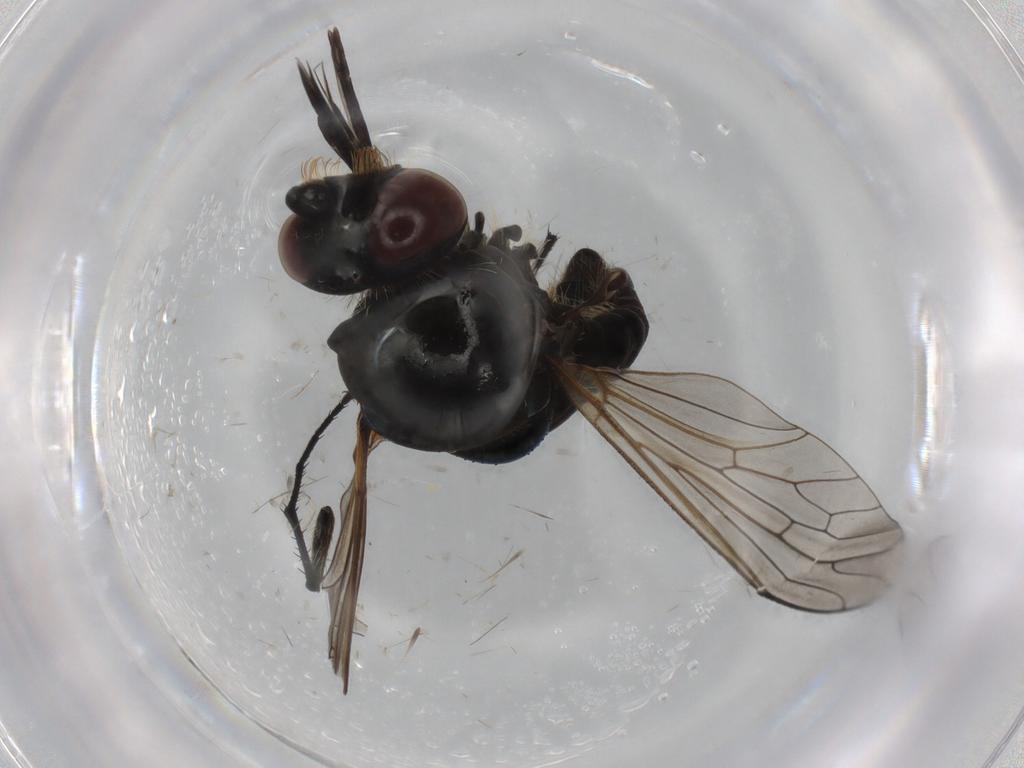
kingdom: Animalia
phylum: Arthropoda
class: Insecta
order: Diptera
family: Bombyliidae
